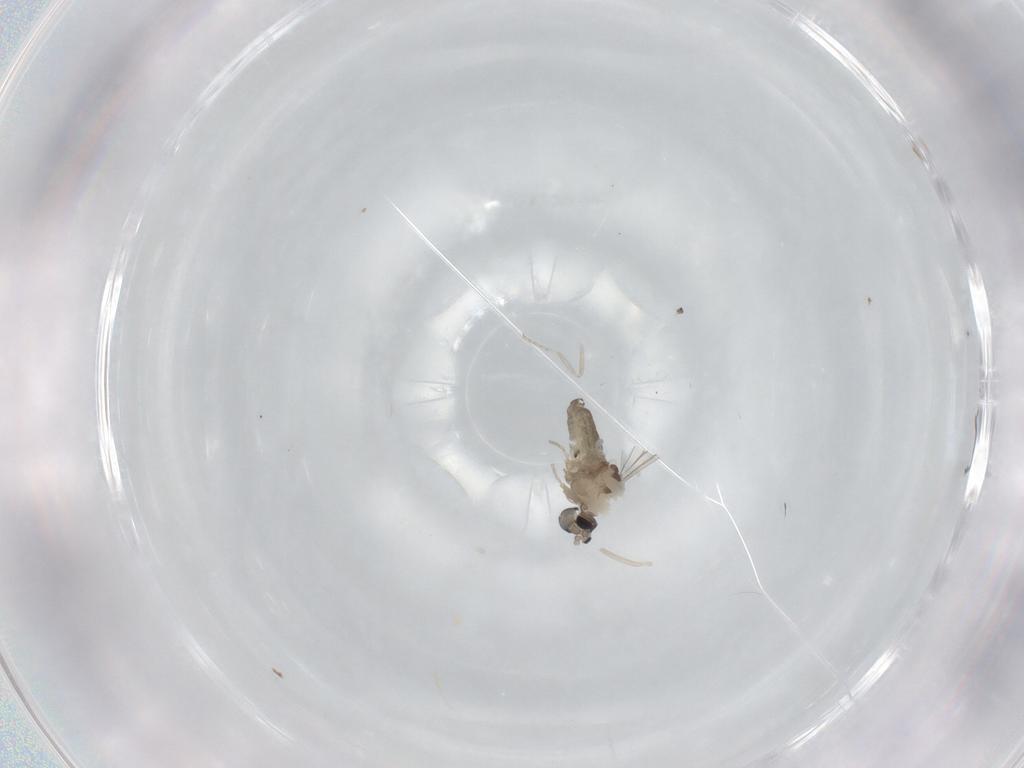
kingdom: Animalia
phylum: Arthropoda
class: Insecta
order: Diptera
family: Cecidomyiidae
